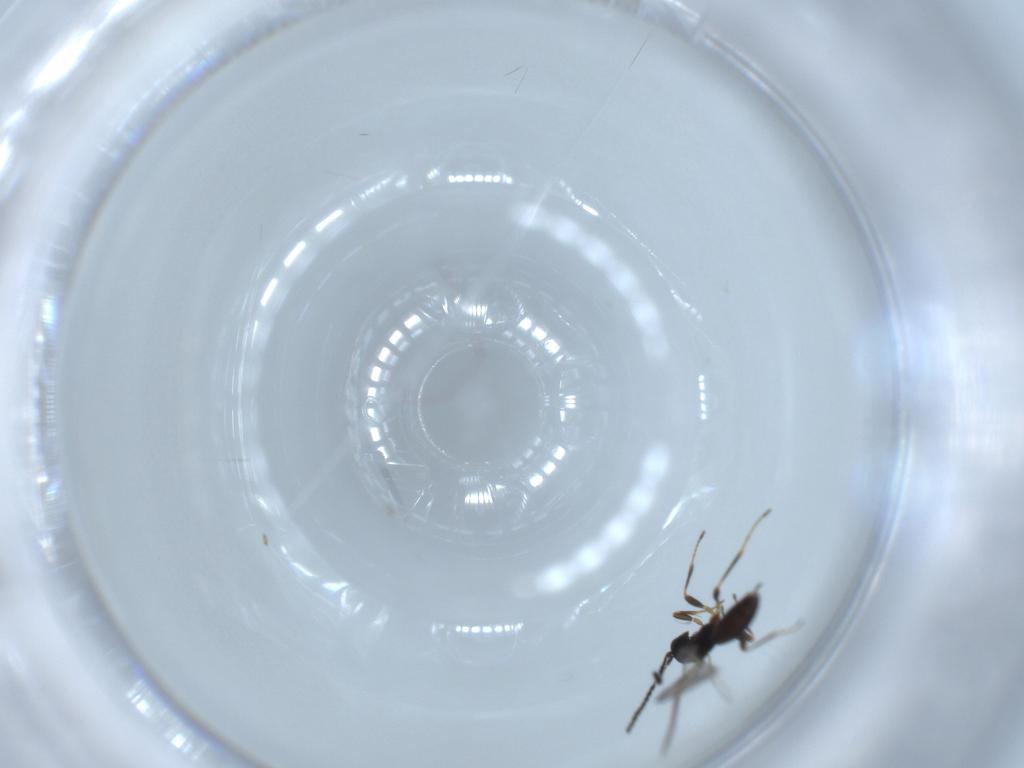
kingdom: Animalia
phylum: Arthropoda
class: Insecta
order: Hymenoptera
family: Braconidae
